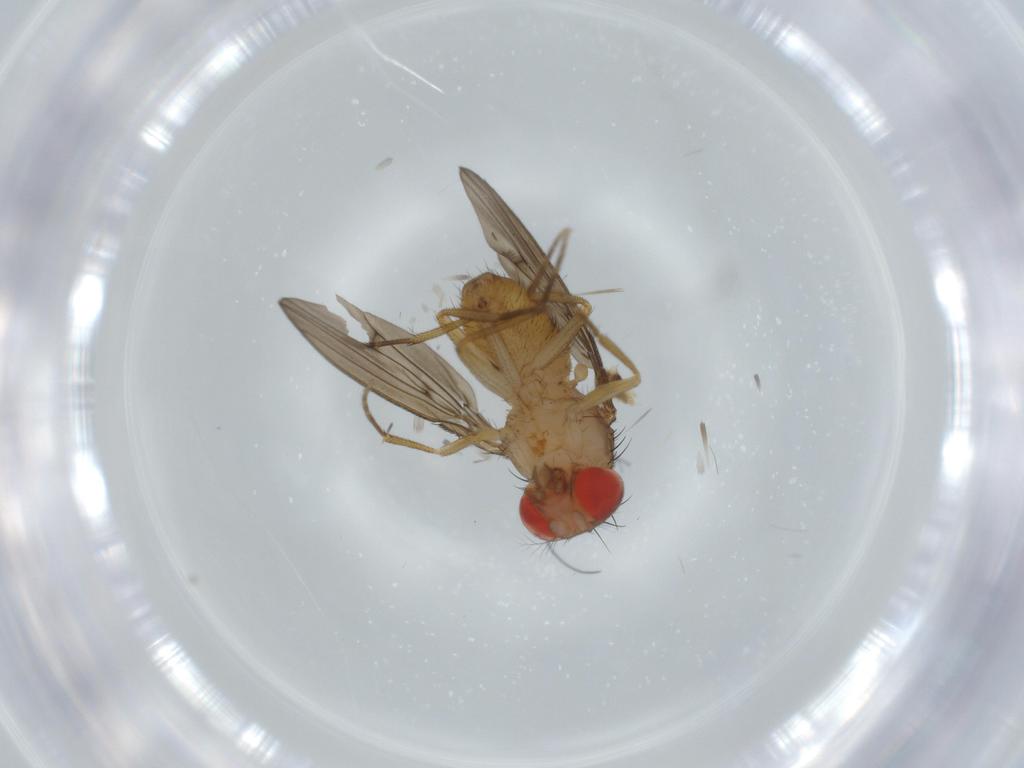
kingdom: Animalia
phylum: Arthropoda
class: Insecta
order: Diptera
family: Drosophilidae
